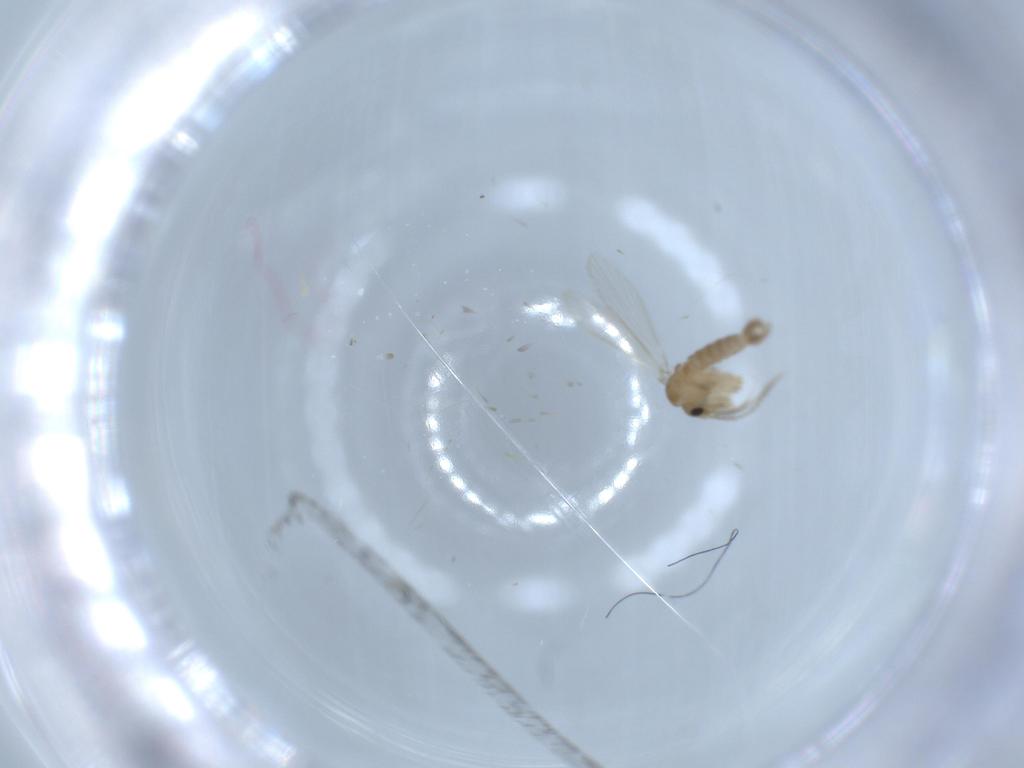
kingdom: Animalia
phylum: Arthropoda
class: Insecta
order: Diptera
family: Psychodidae
